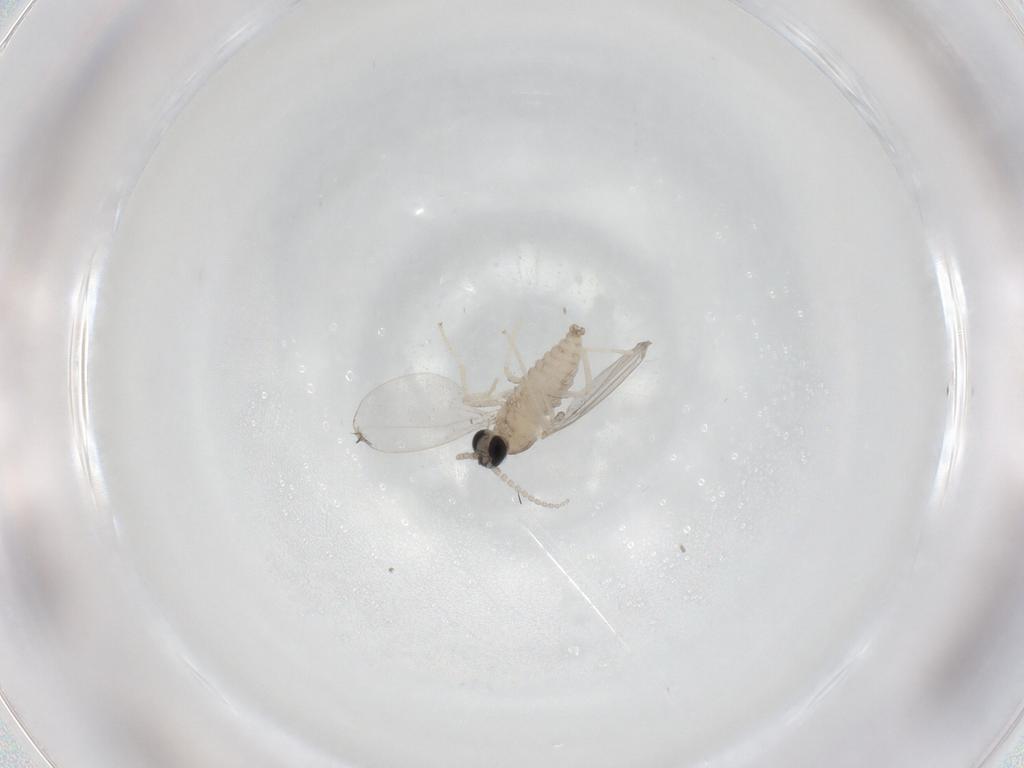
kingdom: Animalia
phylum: Arthropoda
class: Insecta
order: Diptera
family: Cecidomyiidae
